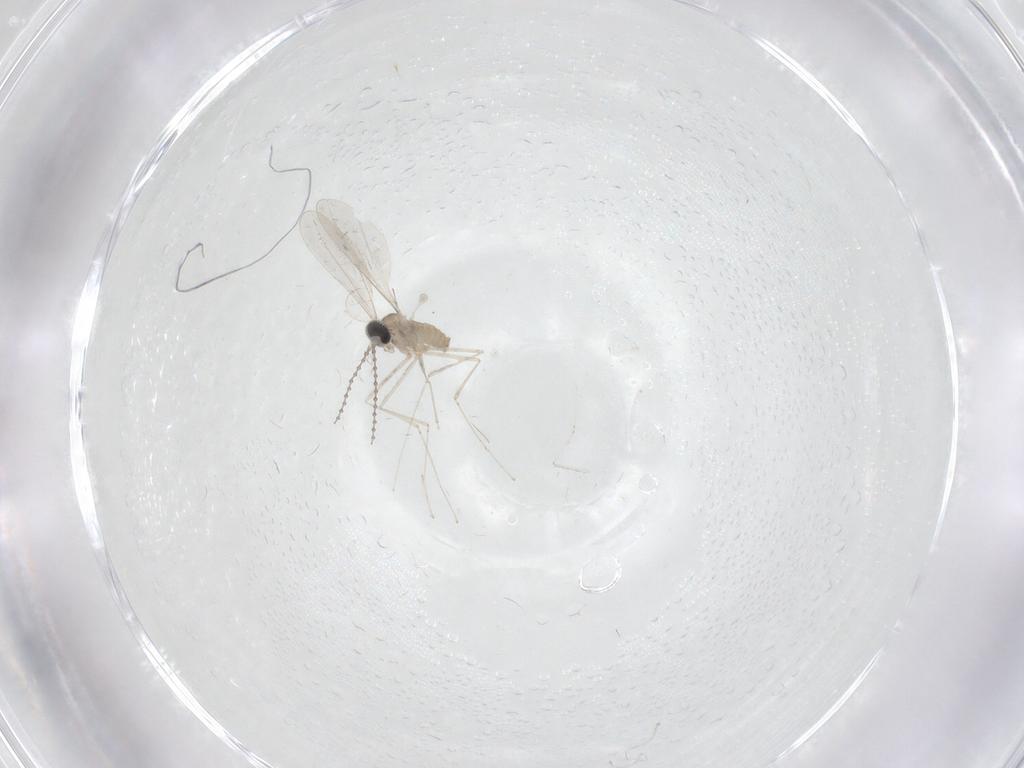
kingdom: Animalia
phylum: Arthropoda
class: Insecta
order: Diptera
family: Cecidomyiidae
